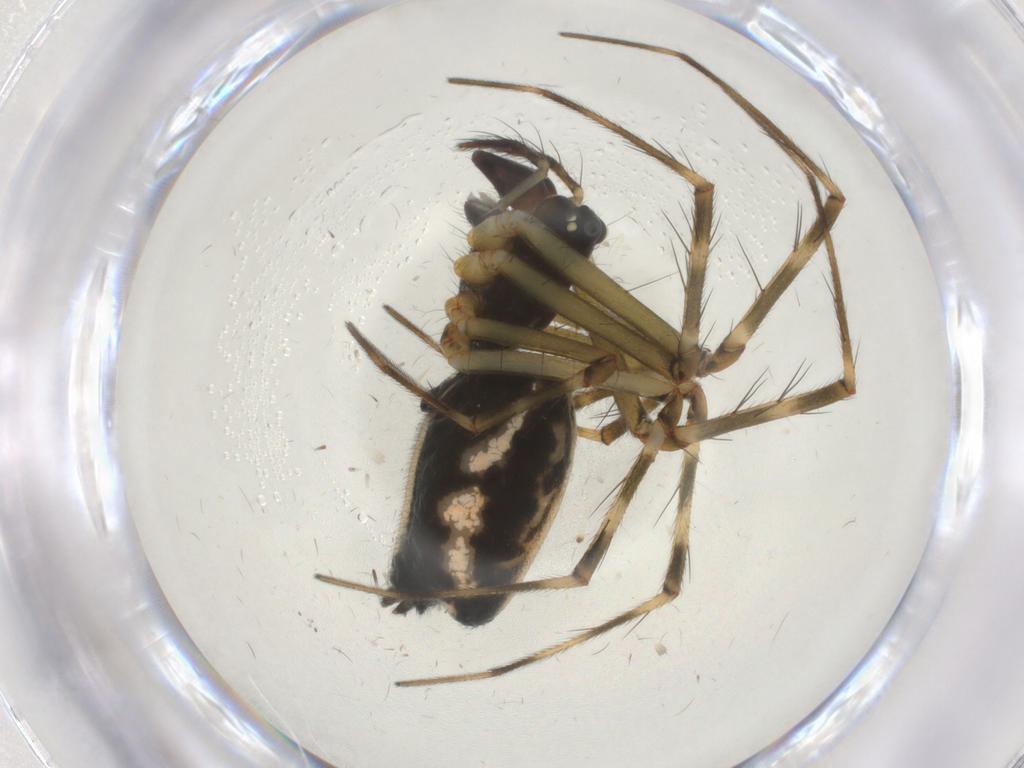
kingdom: Animalia
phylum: Arthropoda
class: Arachnida
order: Araneae
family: Linyphiidae
